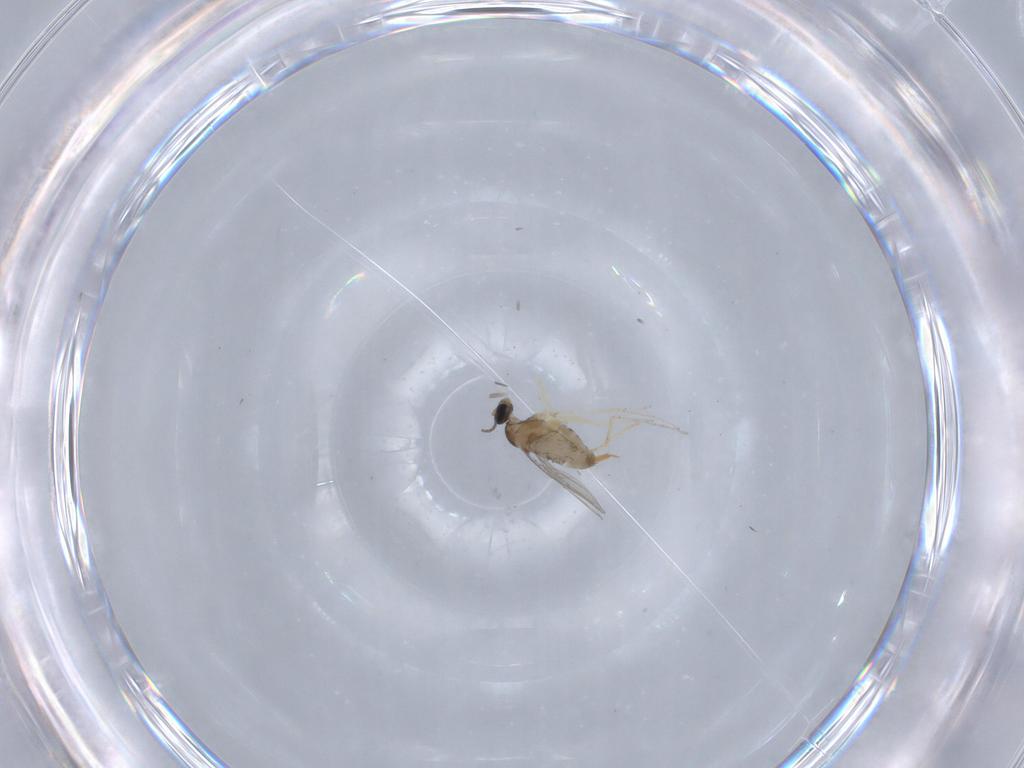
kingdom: Animalia
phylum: Arthropoda
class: Insecta
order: Diptera
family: Cecidomyiidae
